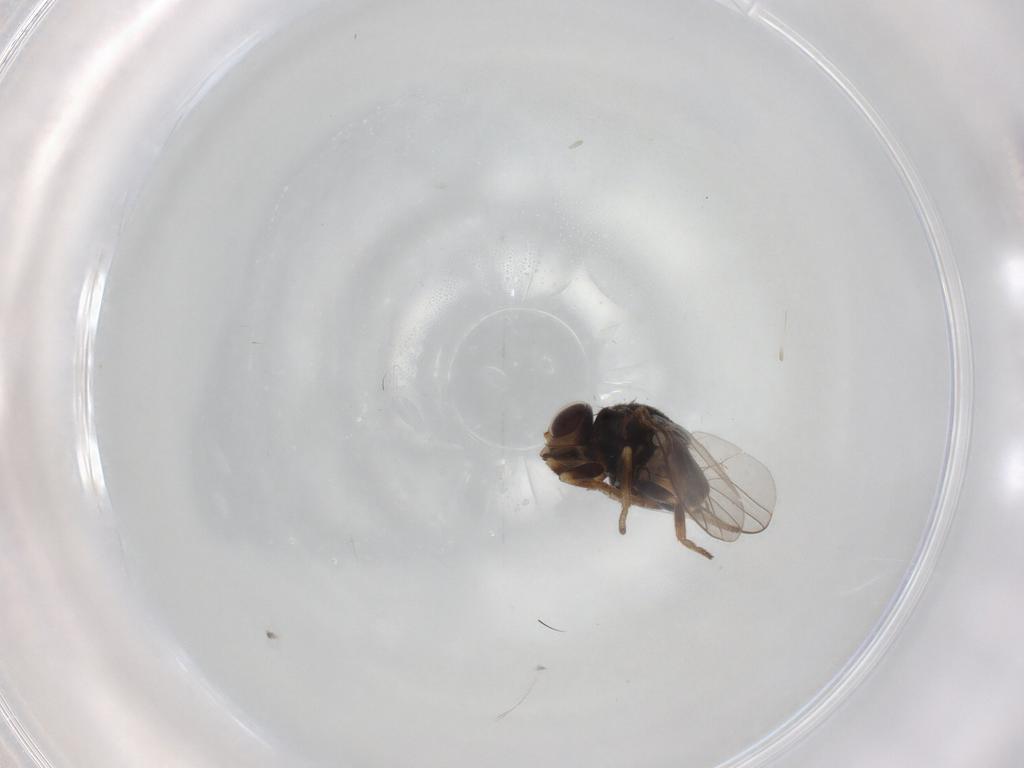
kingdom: Animalia
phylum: Arthropoda
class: Insecta
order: Diptera
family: Chloropidae
